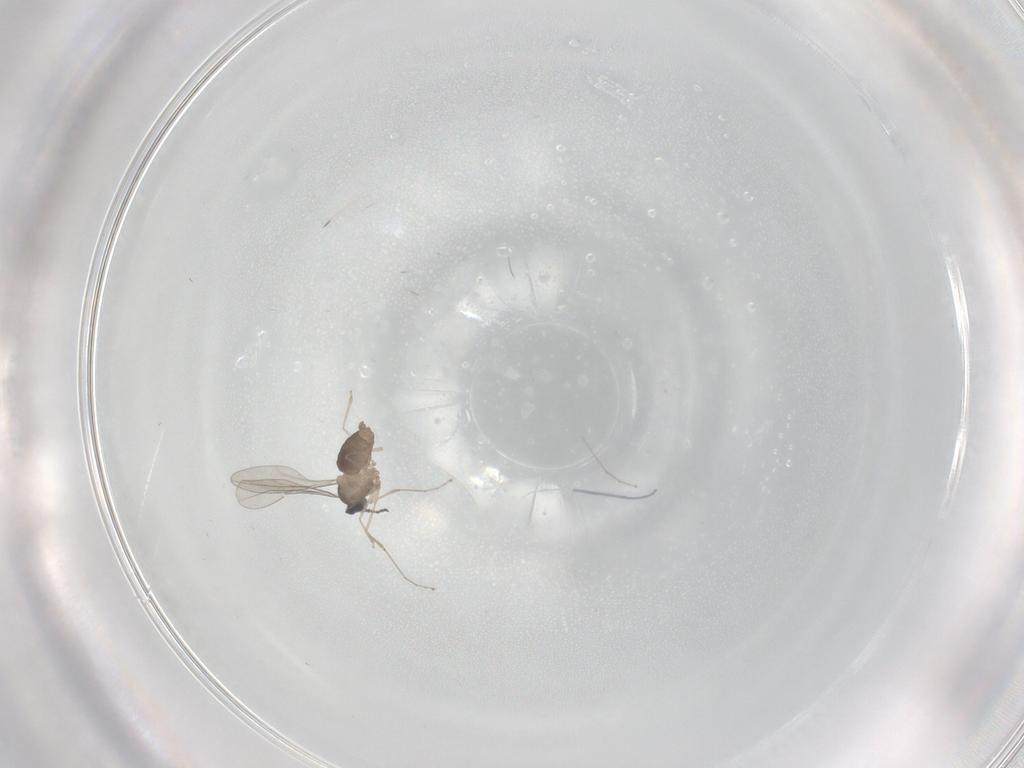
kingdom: Animalia
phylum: Arthropoda
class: Insecta
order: Diptera
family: Cecidomyiidae
